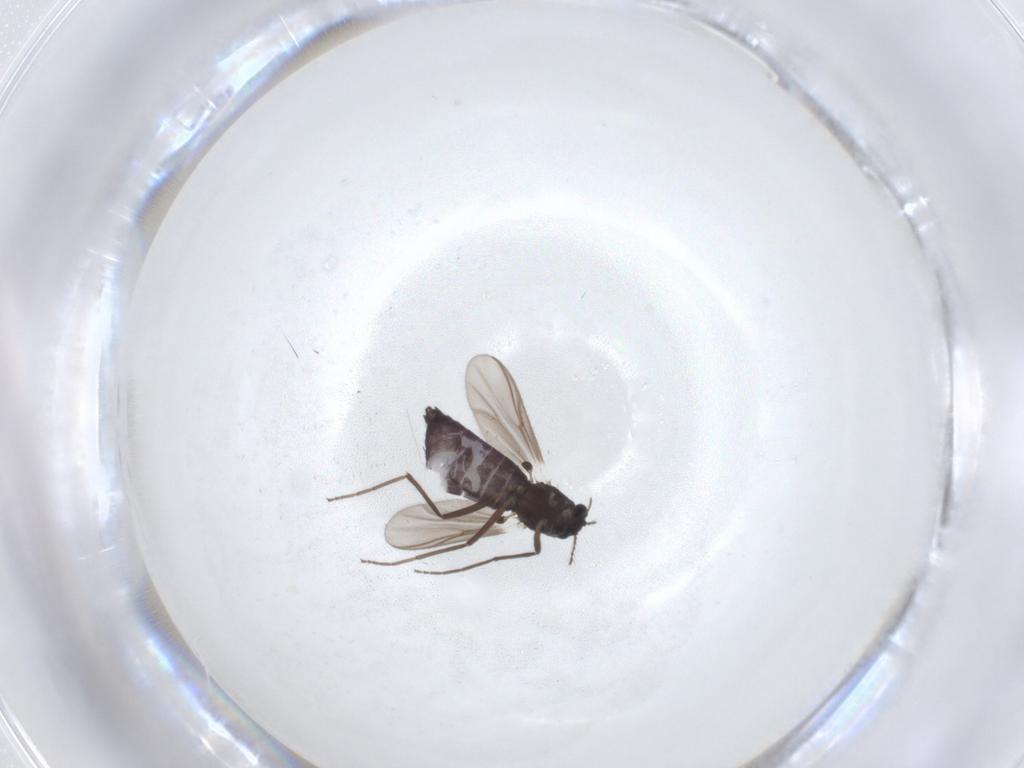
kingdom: Animalia
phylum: Arthropoda
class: Insecta
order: Diptera
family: Chironomidae
